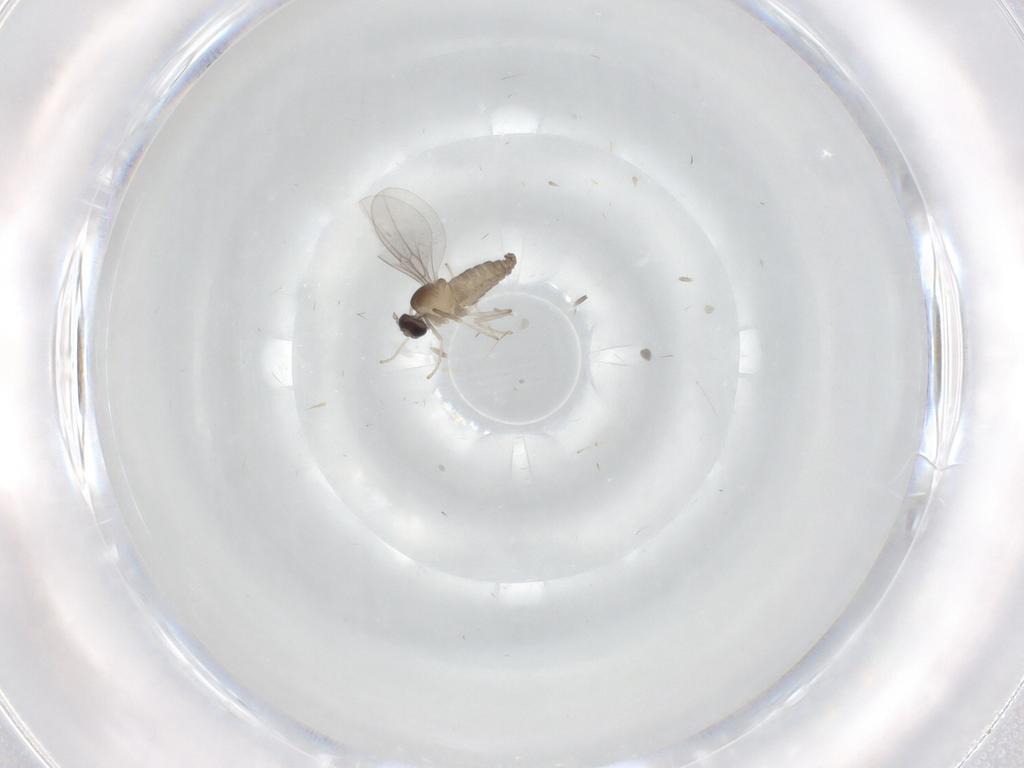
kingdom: Animalia
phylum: Arthropoda
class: Insecta
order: Diptera
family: Cecidomyiidae
